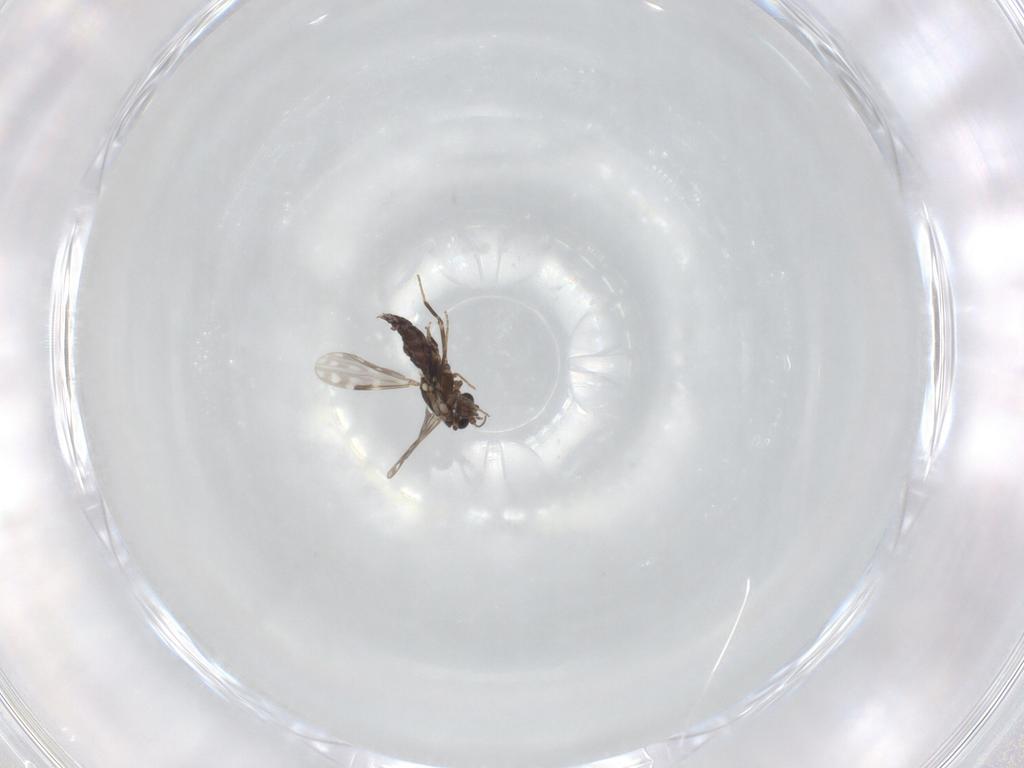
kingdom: Animalia
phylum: Arthropoda
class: Insecta
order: Diptera
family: Ceratopogonidae
